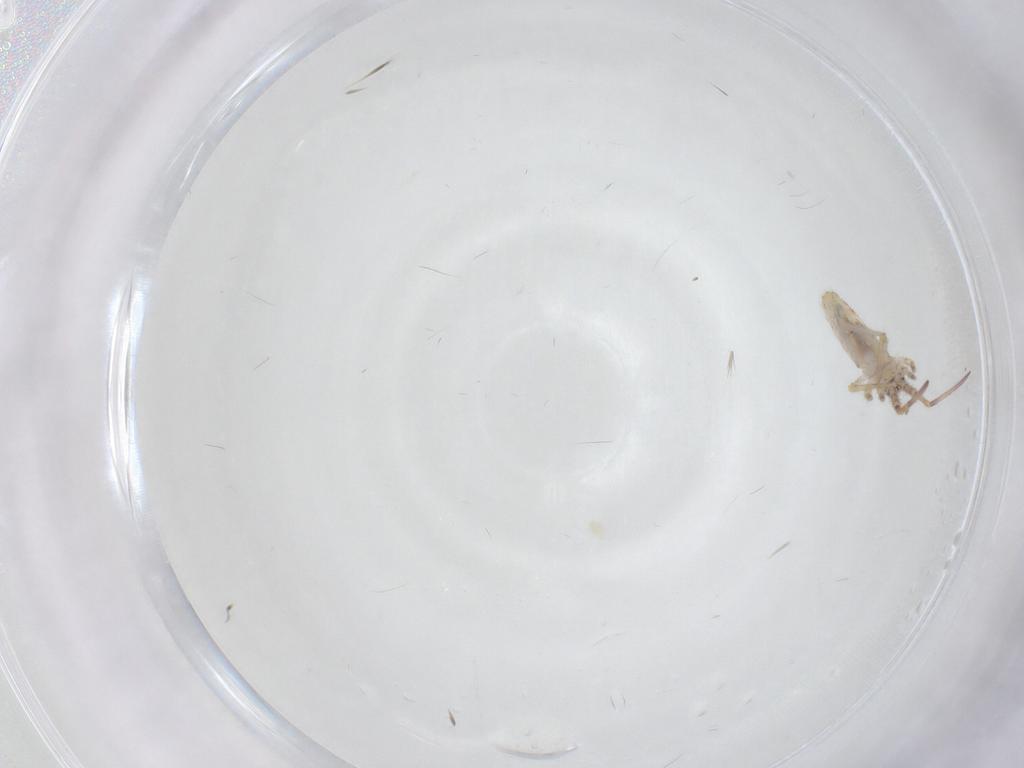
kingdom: Animalia
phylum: Arthropoda
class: Collembola
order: Entomobryomorpha
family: Entomobryidae
